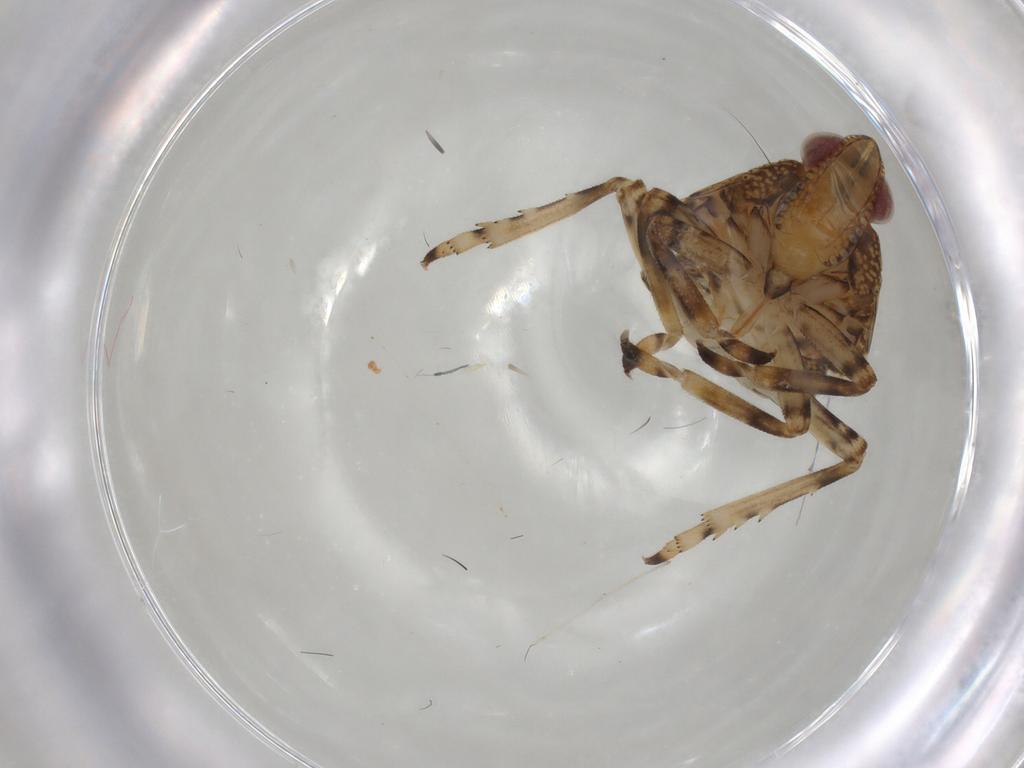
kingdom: Animalia
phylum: Arthropoda
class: Insecta
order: Hemiptera
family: Tropiduchidae
